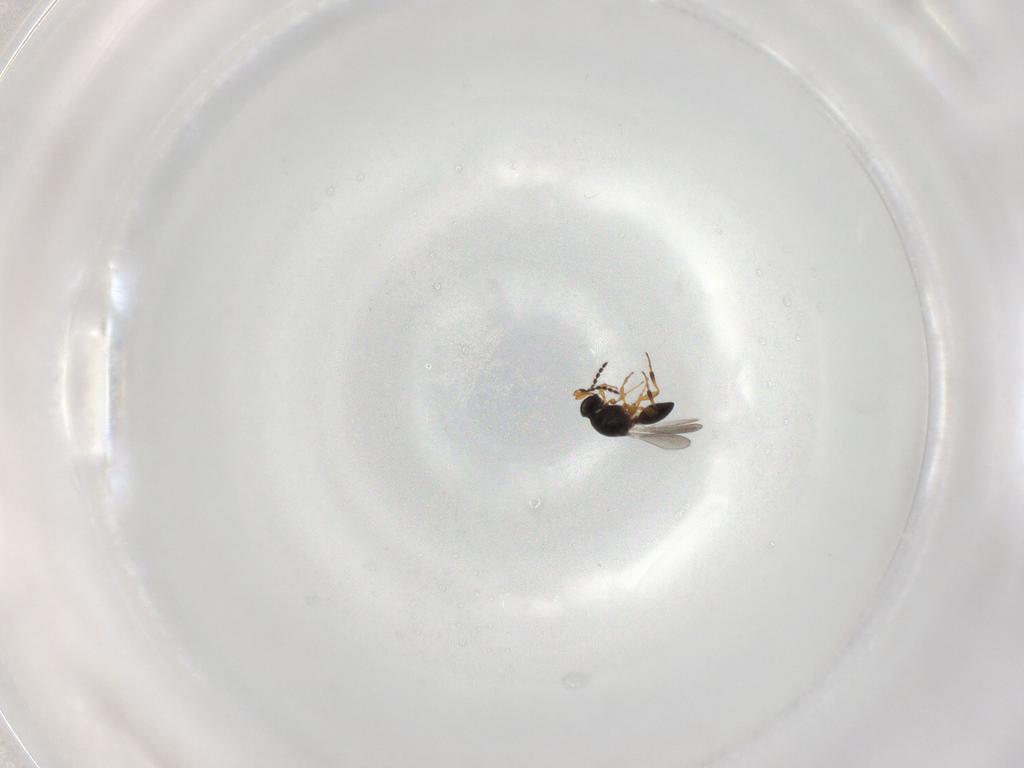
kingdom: Animalia
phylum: Arthropoda
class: Insecta
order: Hymenoptera
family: Platygastridae
